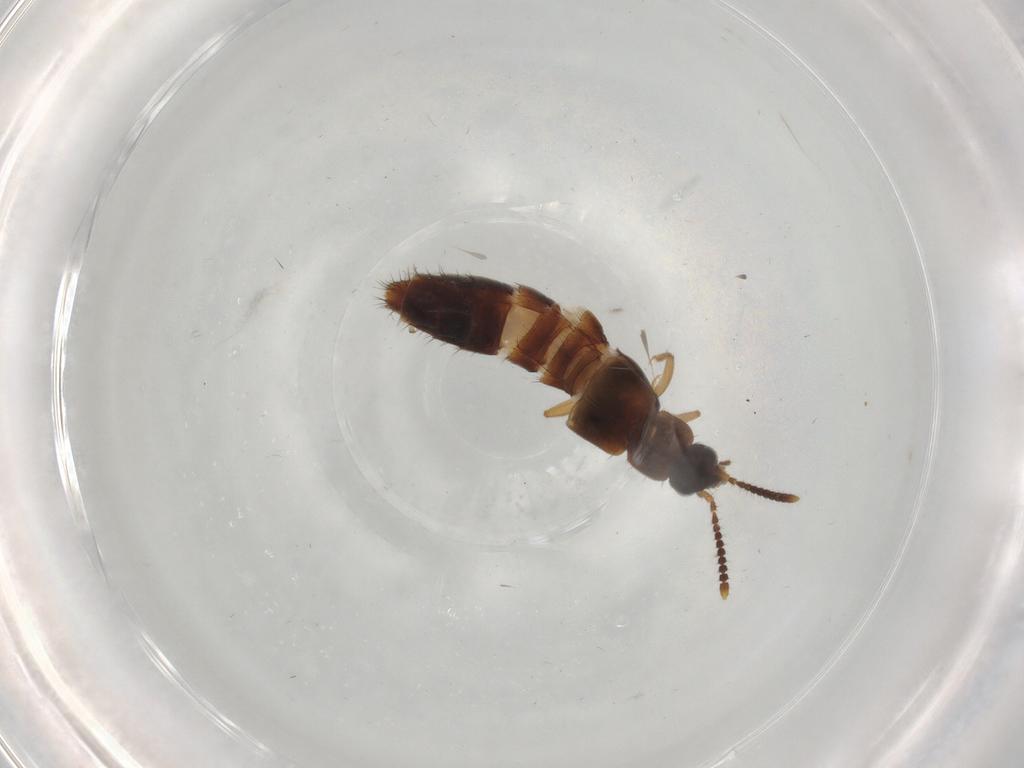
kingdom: Animalia
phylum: Arthropoda
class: Insecta
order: Coleoptera
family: Staphylinidae
